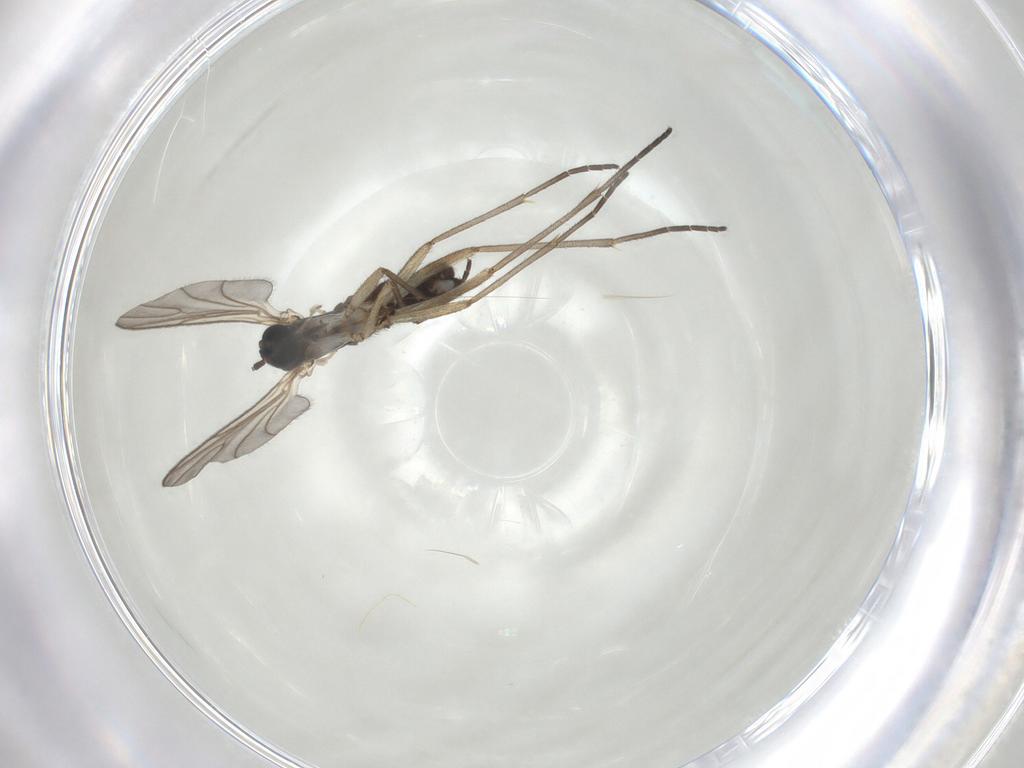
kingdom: Animalia
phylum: Arthropoda
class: Insecta
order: Diptera
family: Sciaridae
